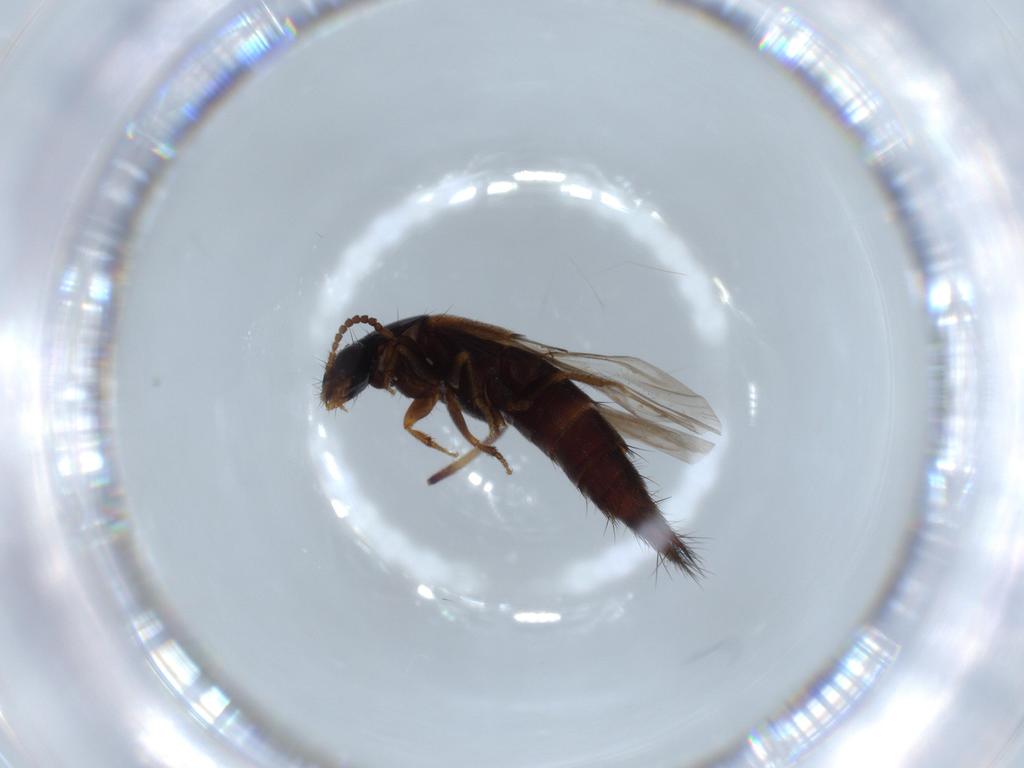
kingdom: Animalia
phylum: Arthropoda
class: Insecta
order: Coleoptera
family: Staphylinidae
